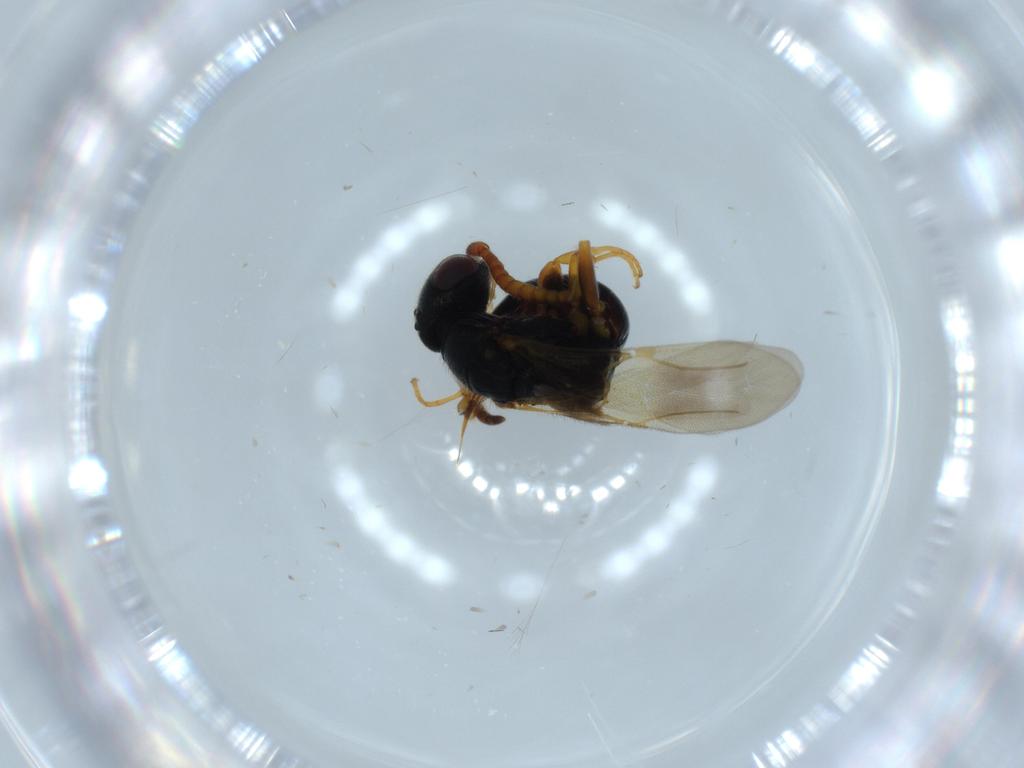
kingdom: Animalia
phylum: Arthropoda
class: Insecta
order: Hymenoptera
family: Bethylidae
